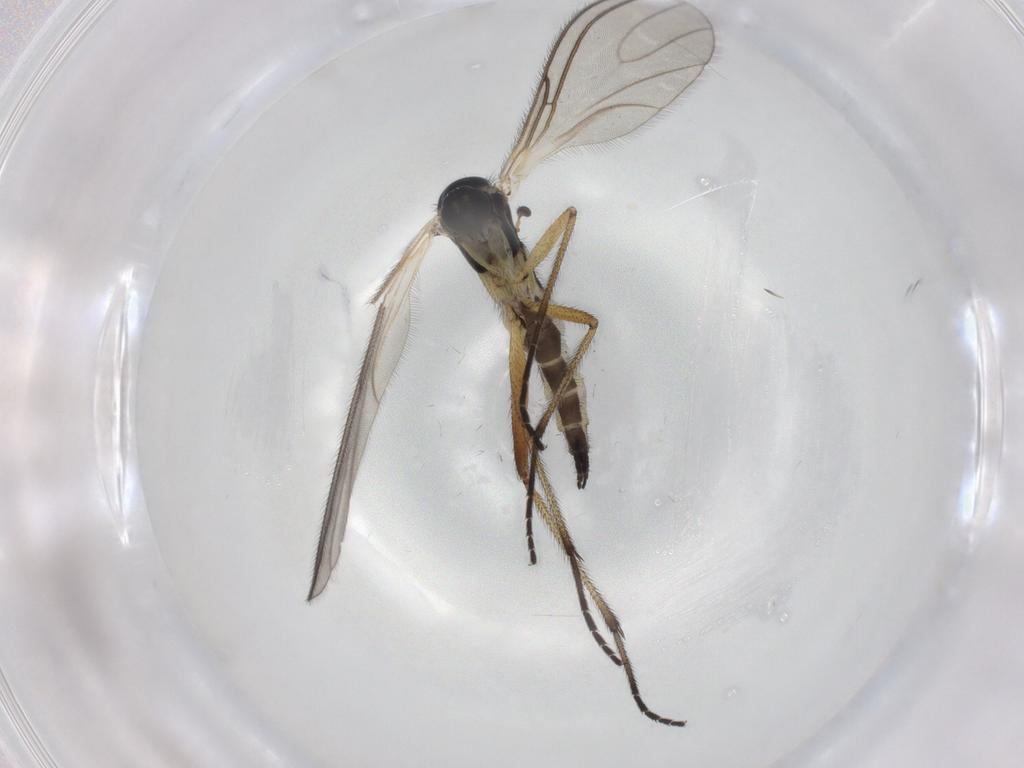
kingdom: Animalia
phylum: Arthropoda
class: Insecta
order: Diptera
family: Sciaridae
